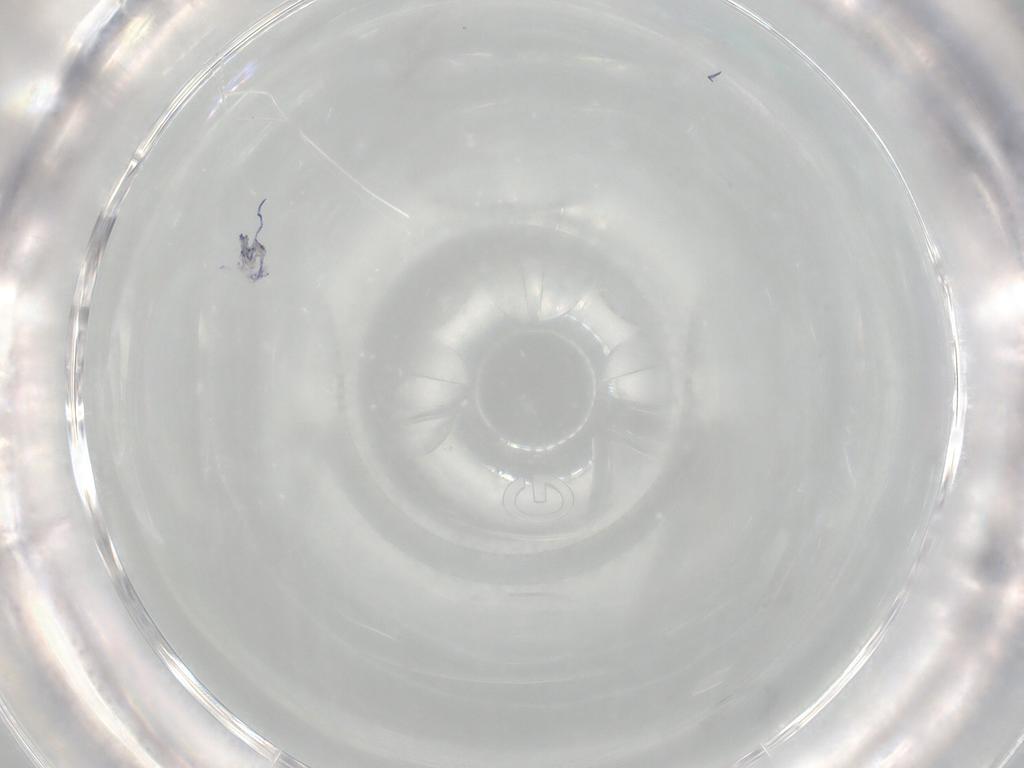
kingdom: Animalia
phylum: Arthropoda
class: Collembola
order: Entomobryomorpha
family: Entomobryidae
